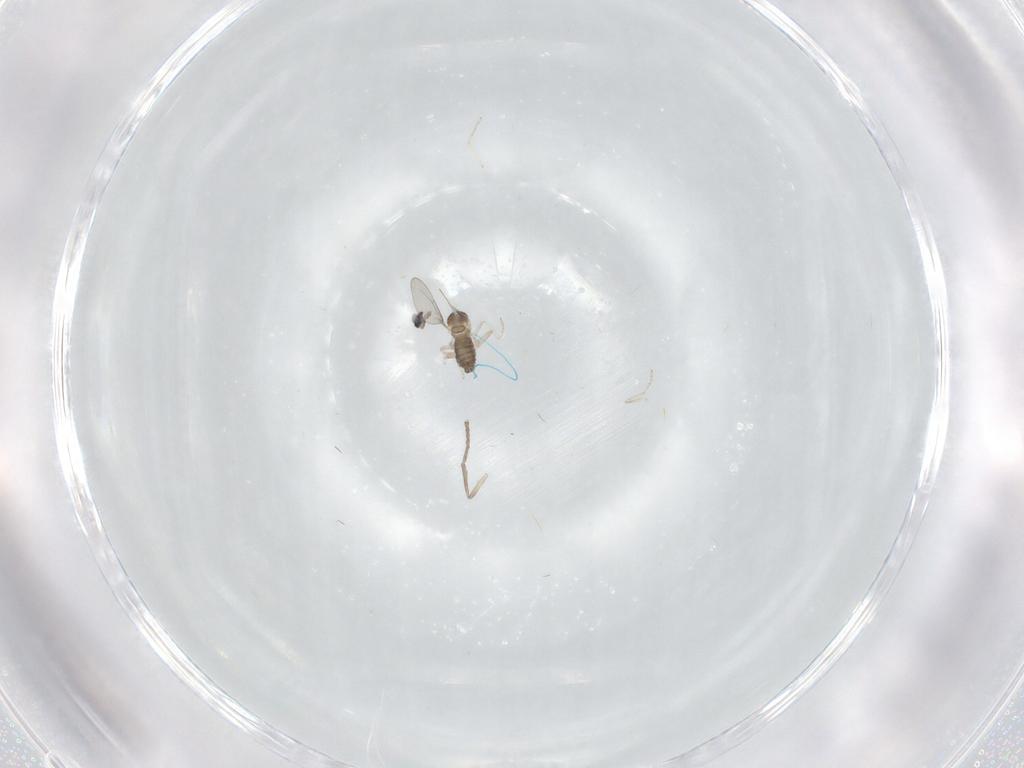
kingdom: Animalia
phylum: Arthropoda
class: Insecta
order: Diptera
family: Cecidomyiidae
